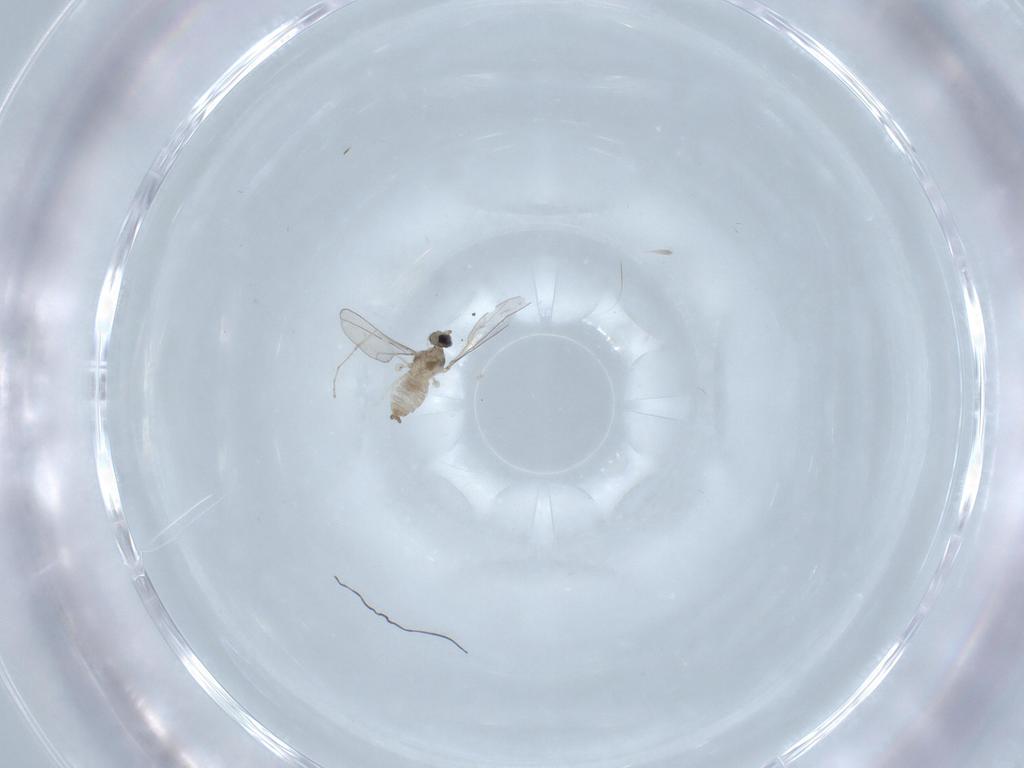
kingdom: Animalia
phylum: Arthropoda
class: Insecta
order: Diptera
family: Sciaridae
